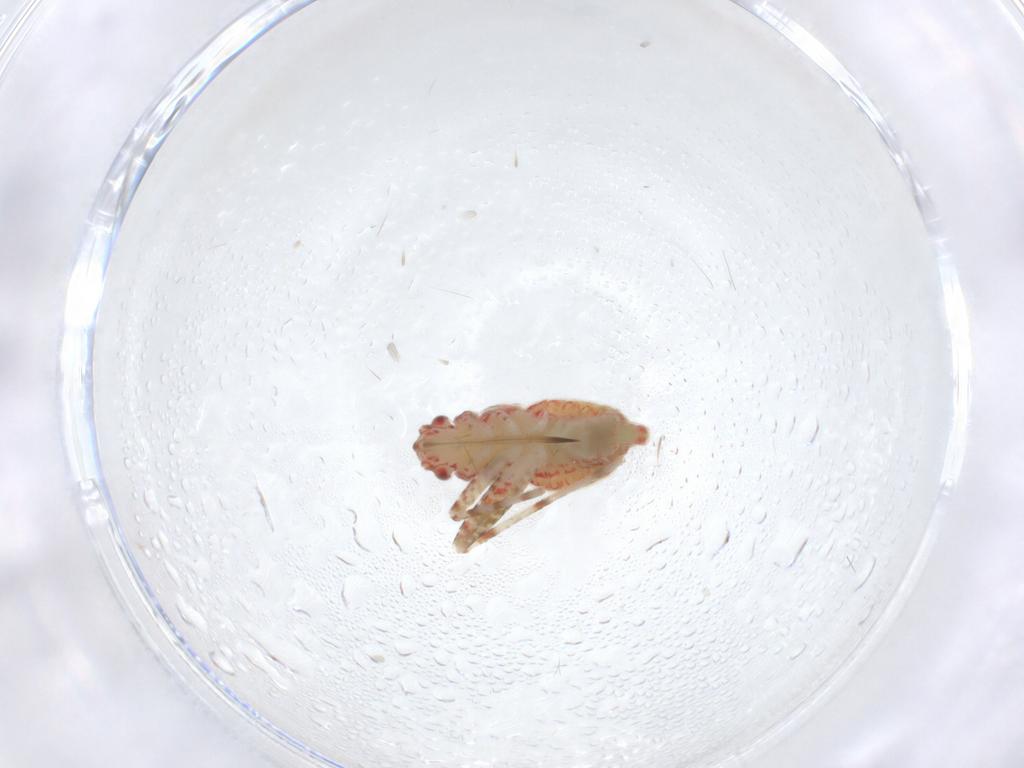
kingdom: Animalia
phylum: Arthropoda
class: Insecta
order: Hemiptera
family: Miridae
